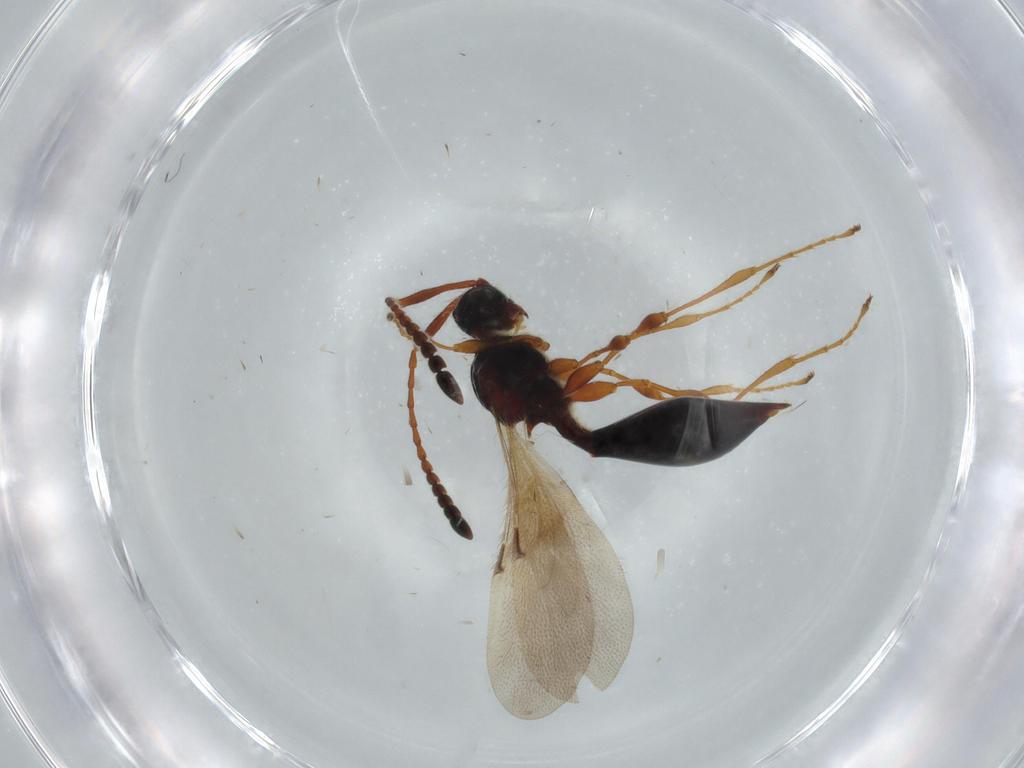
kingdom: Animalia
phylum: Arthropoda
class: Insecta
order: Hymenoptera
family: Diapriidae
